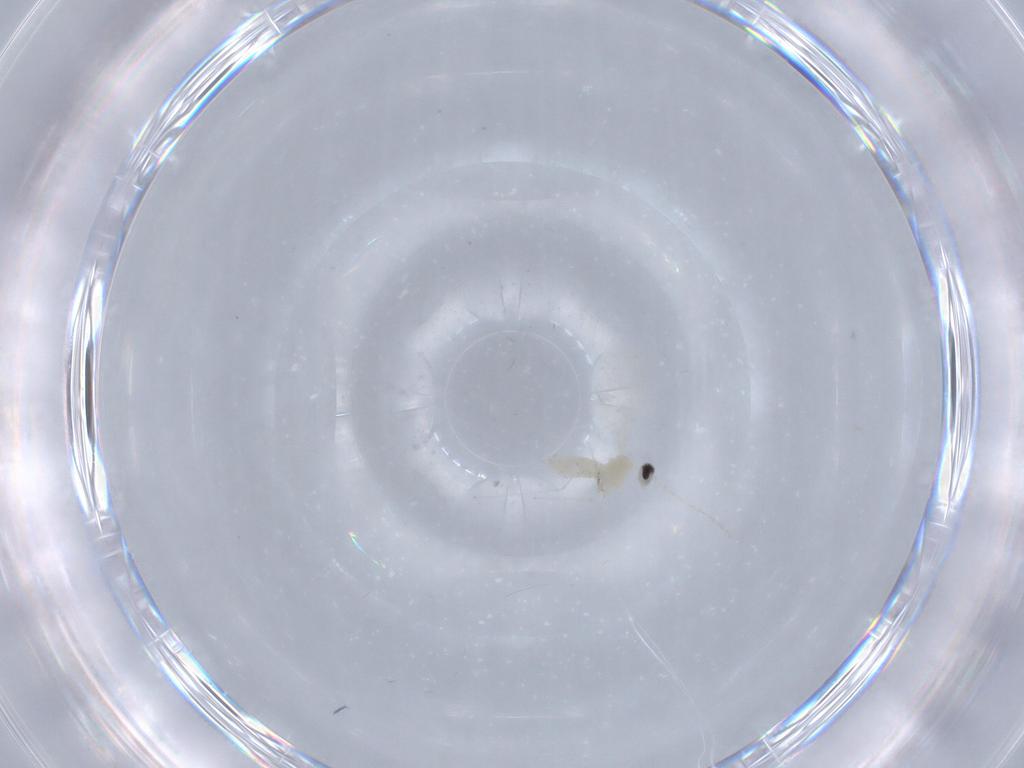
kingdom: Animalia
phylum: Arthropoda
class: Insecta
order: Diptera
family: Cecidomyiidae
